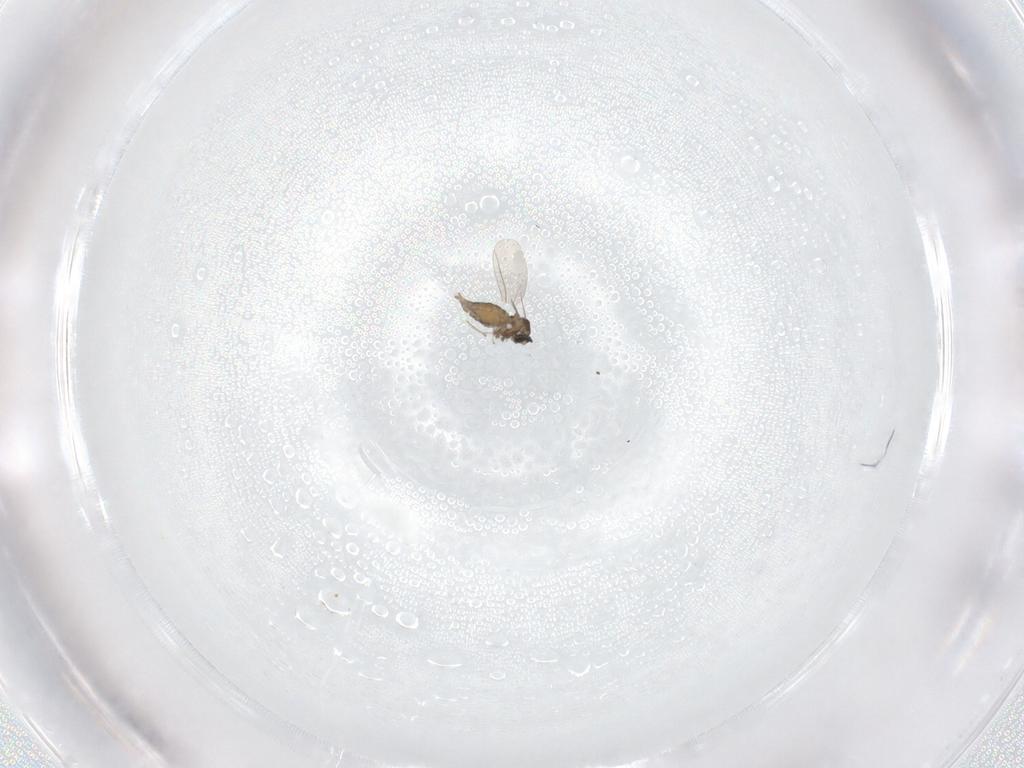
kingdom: Animalia
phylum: Arthropoda
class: Insecta
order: Diptera
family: Cecidomyiidae
